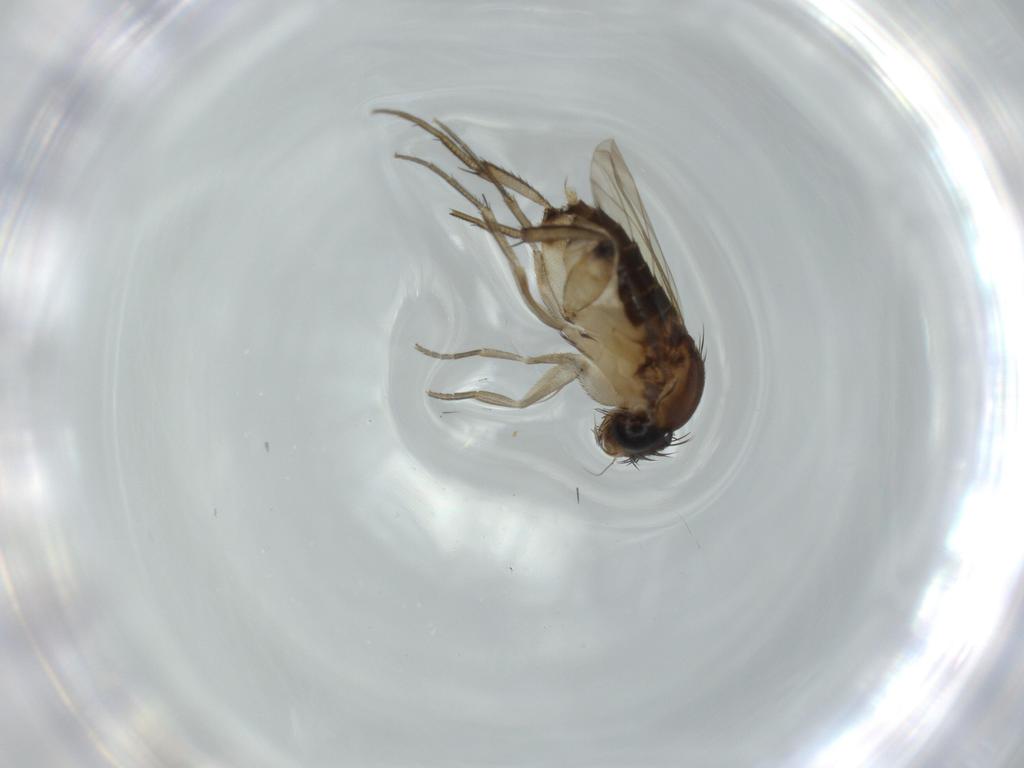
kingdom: Animalia
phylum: Arthropoda
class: Insecta
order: Diptera
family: Phoridae
